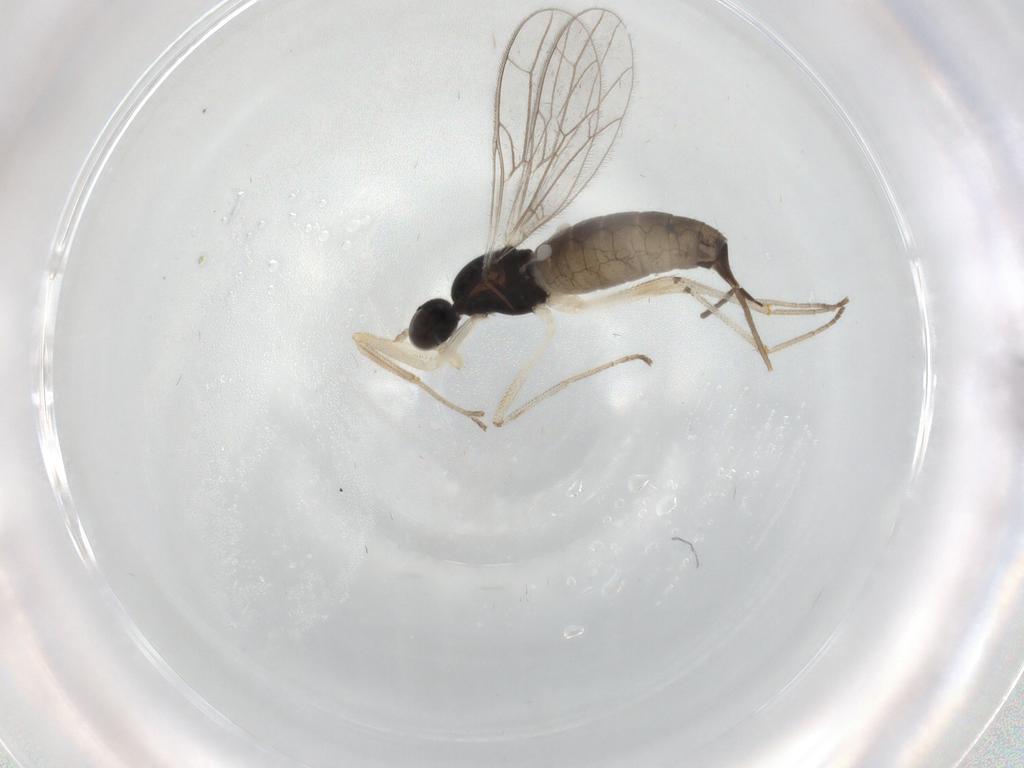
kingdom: Animalia
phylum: Arthropoda
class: Insecta
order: Diptera
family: Empididae
